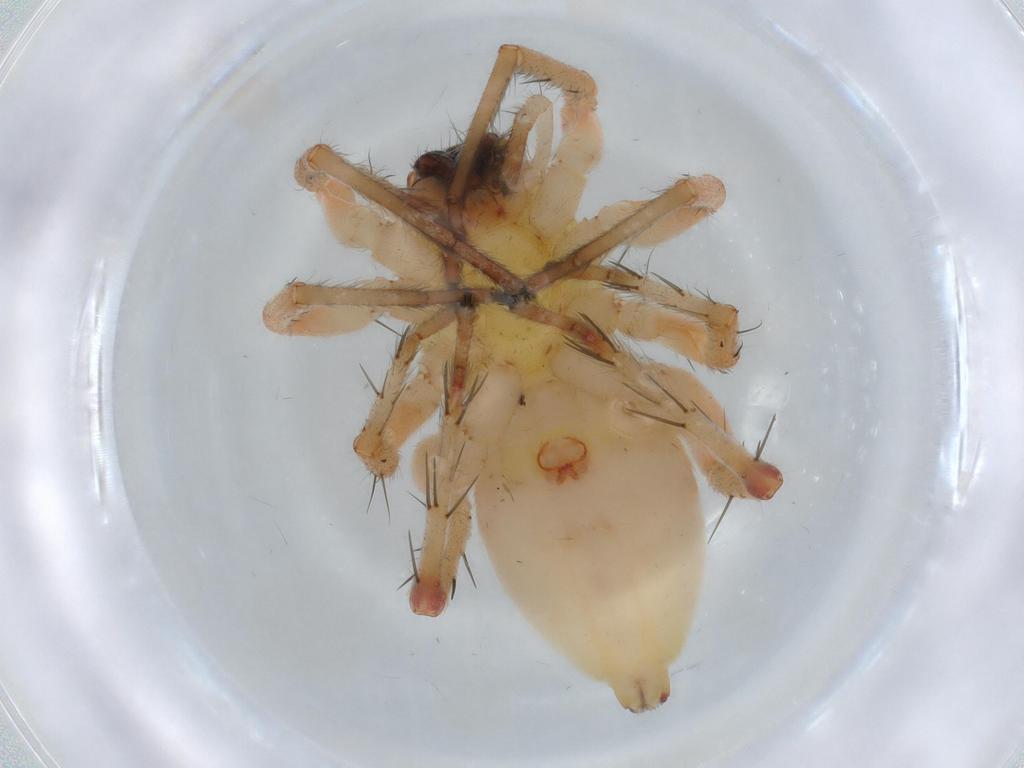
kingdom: Animalia
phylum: Arthropoda
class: Arachnida
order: Araneae
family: Anyphaenidae
